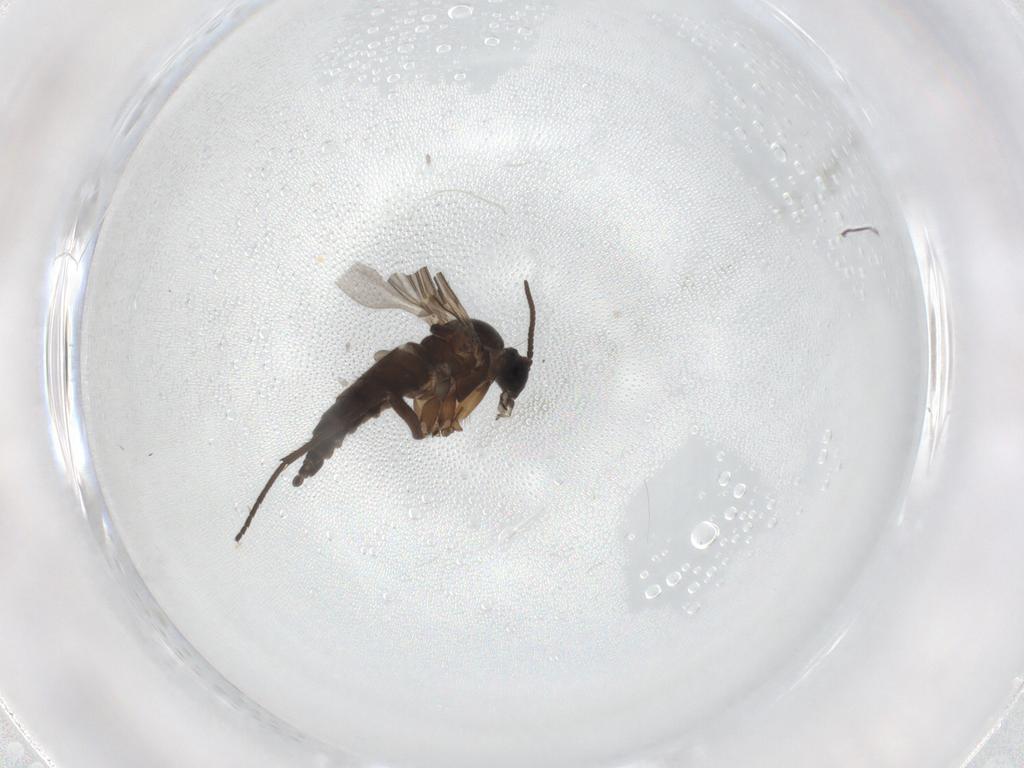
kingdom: Animalia
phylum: Arthropoda
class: Insecta
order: Diptera
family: Sciaridae
